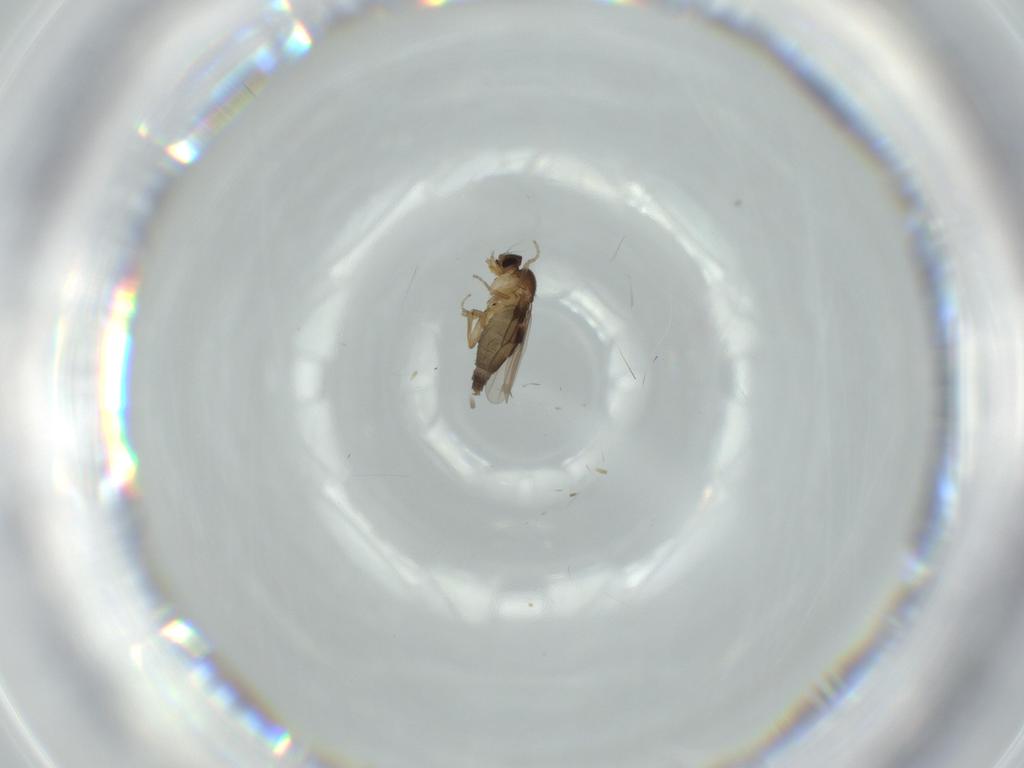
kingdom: Animalia
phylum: Arthropoda
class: Insecta
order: Diptera
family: Phoridae
